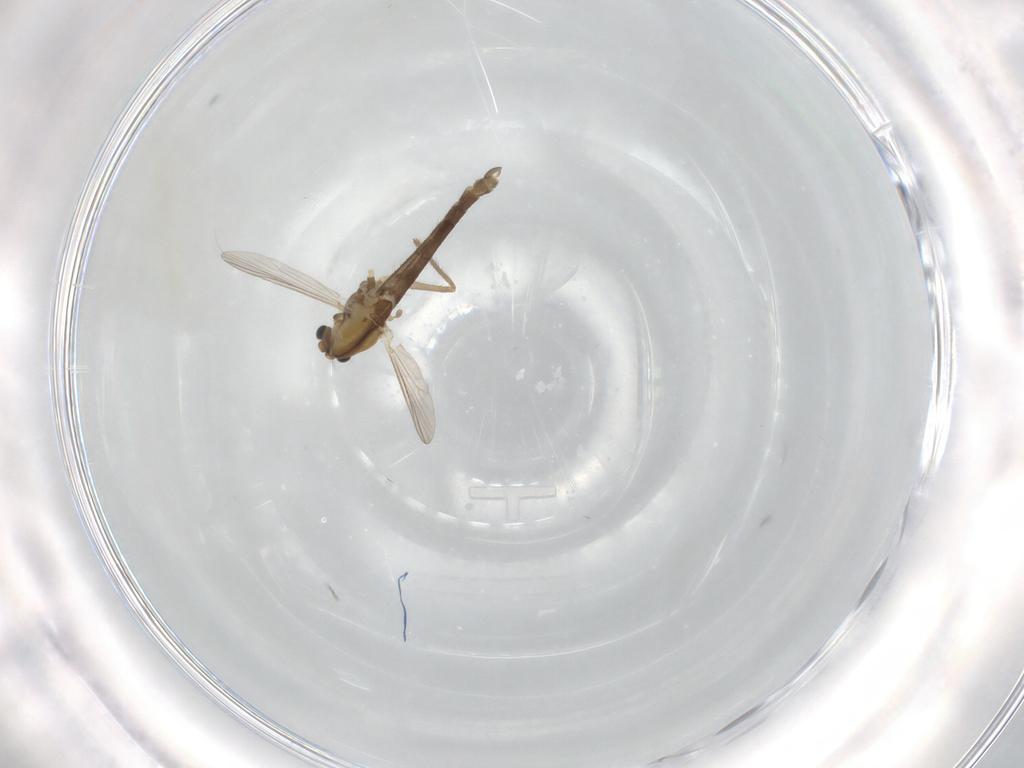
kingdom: Animalia
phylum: Arthropoda
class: Insecta
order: Diptera
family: Chironomidae
